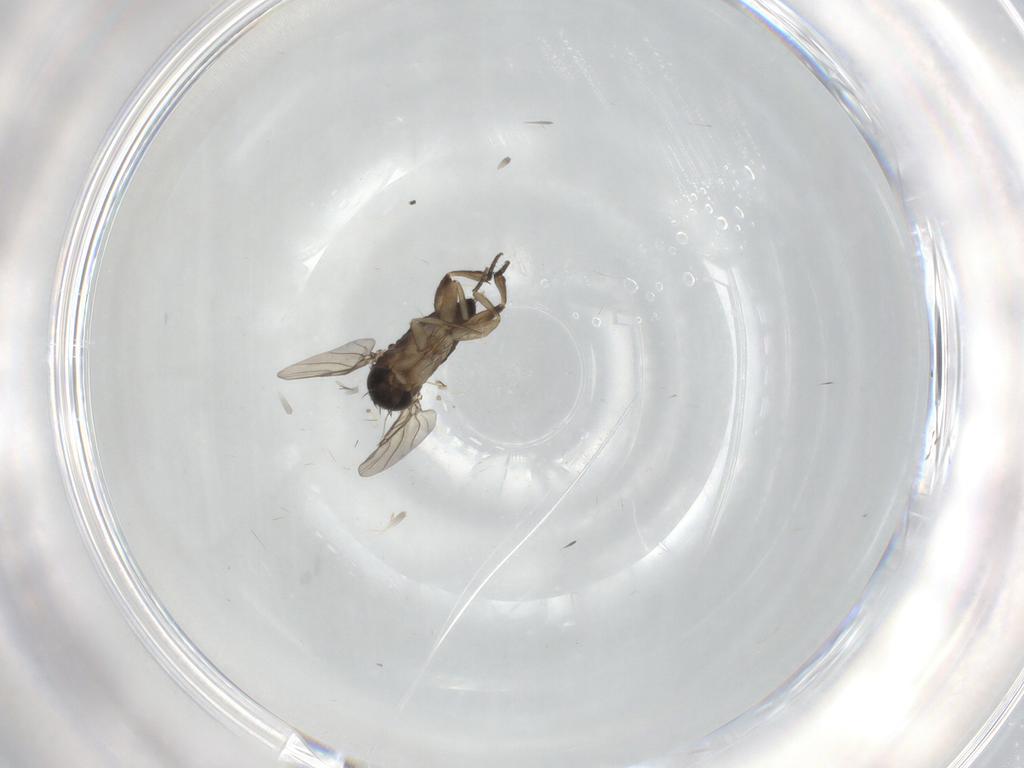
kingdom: Animalia
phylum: Arthropoda
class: Insecta
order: Diptera
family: Phoridae
